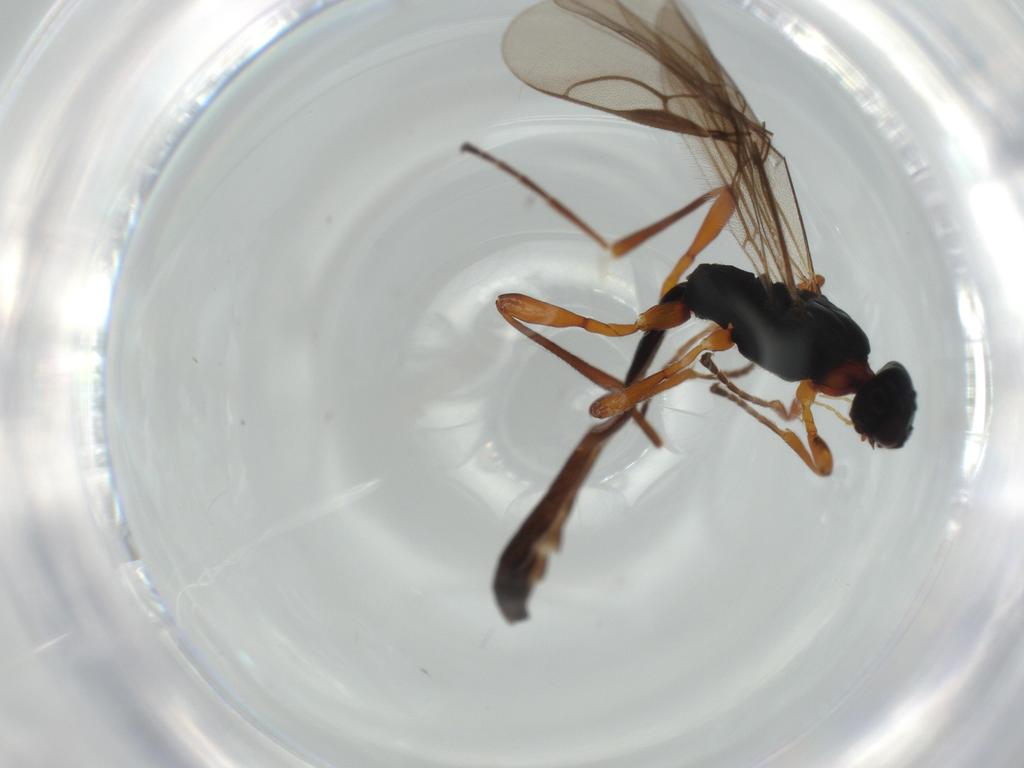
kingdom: Animalia
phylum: Arthropoda
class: Insecta
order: Hymenoptera
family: Braconidae
